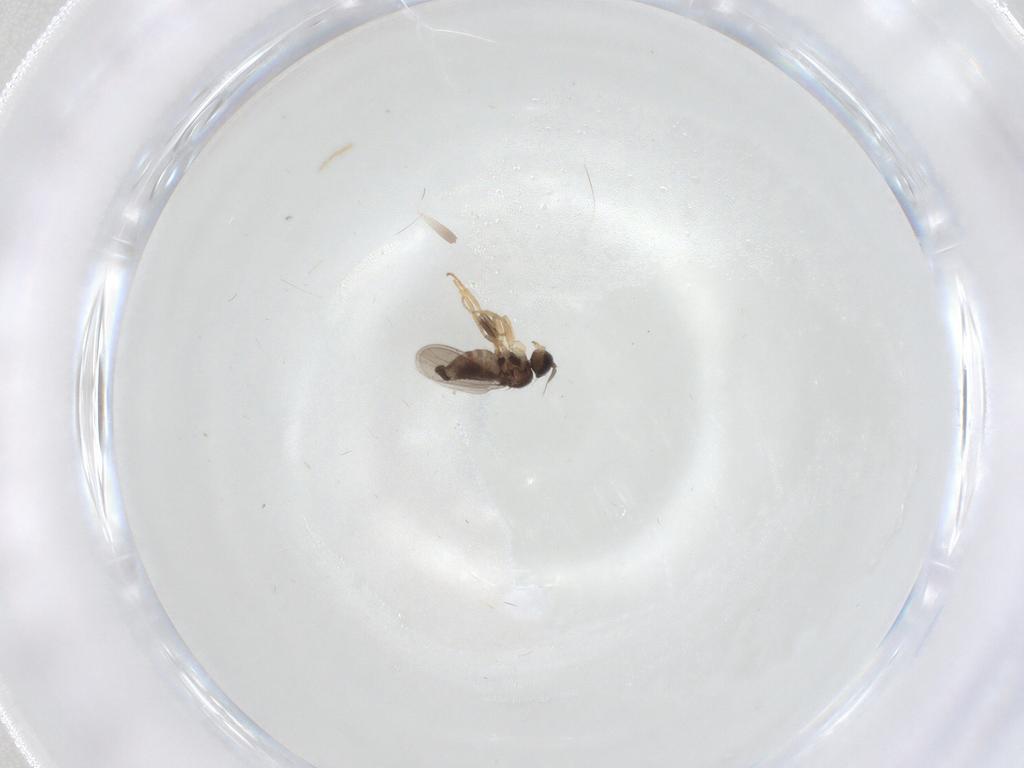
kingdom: Animalia
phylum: Arthropoda
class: Insecta
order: Diptera
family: Hybotidae
